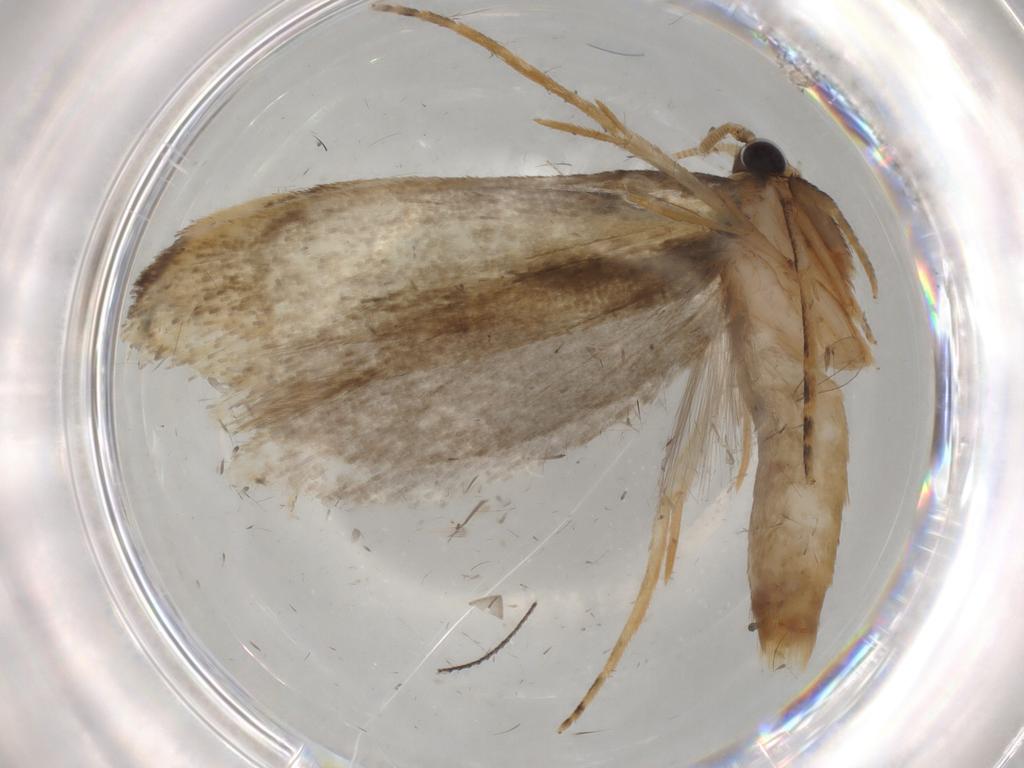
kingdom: Animalia
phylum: Arthropoda
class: Insecta
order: Lepidoptera
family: Tineidae
